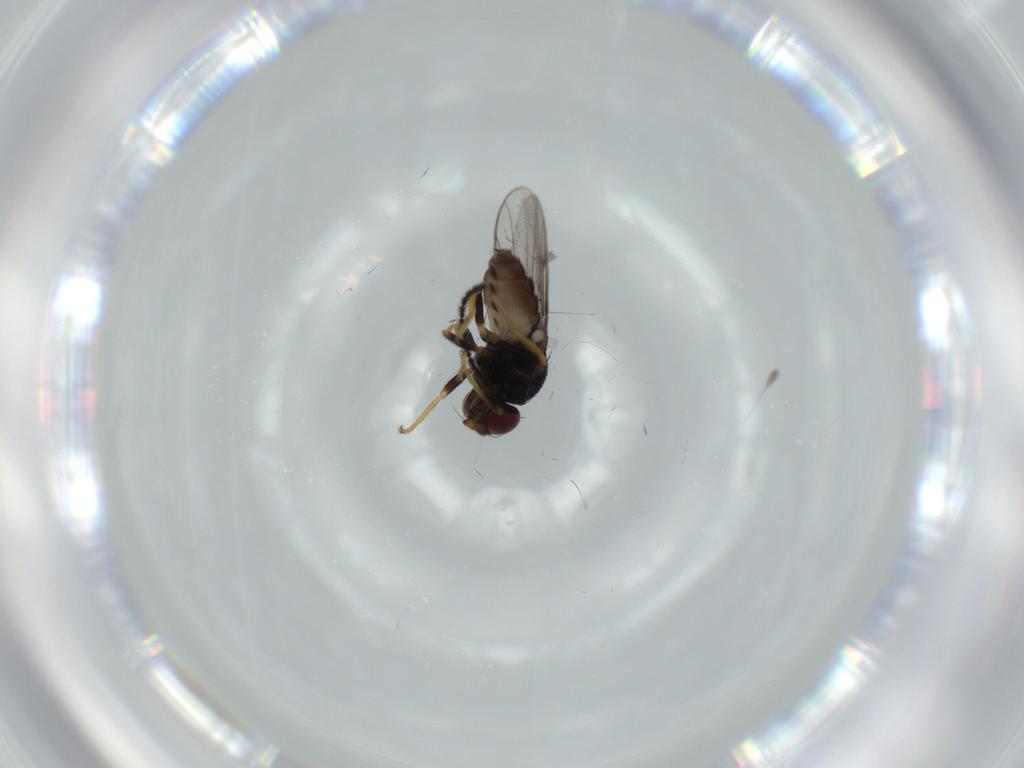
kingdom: Animalia
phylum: Arthropoda
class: Insecta
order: Diptera
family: Chloropidae
